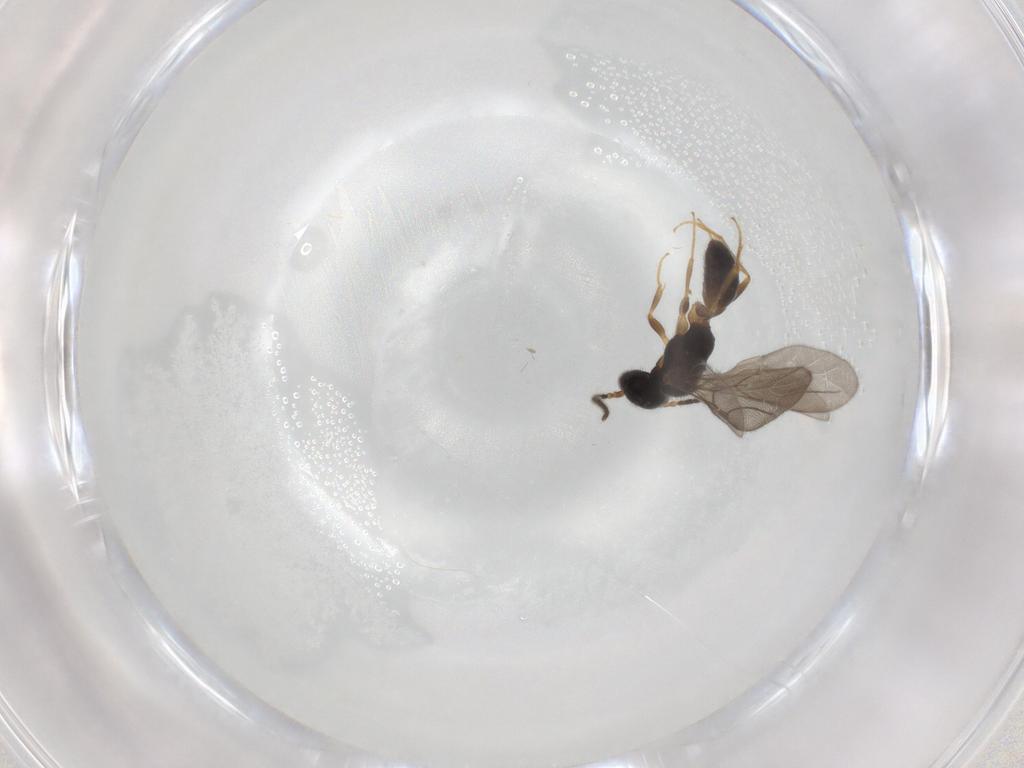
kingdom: Animalia
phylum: Arthropoda
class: Insecta
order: Hymenoptera
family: Bethylidae
